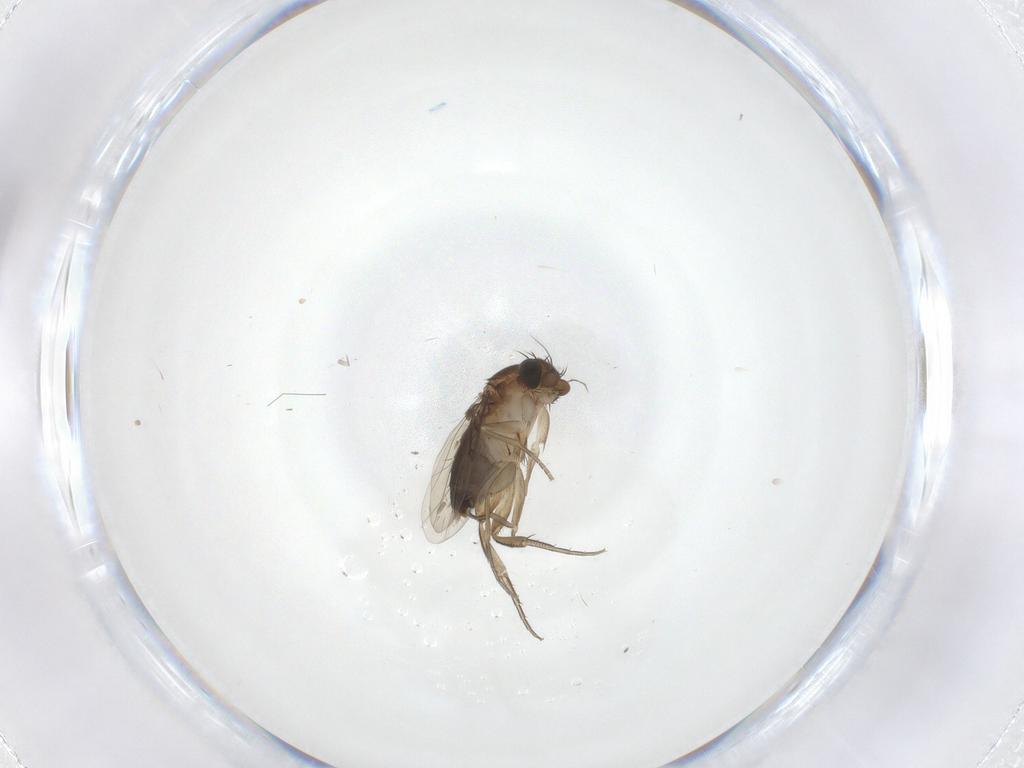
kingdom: Animalia
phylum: Arthropoda
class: Insecta
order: Diptera
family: Phoridae
